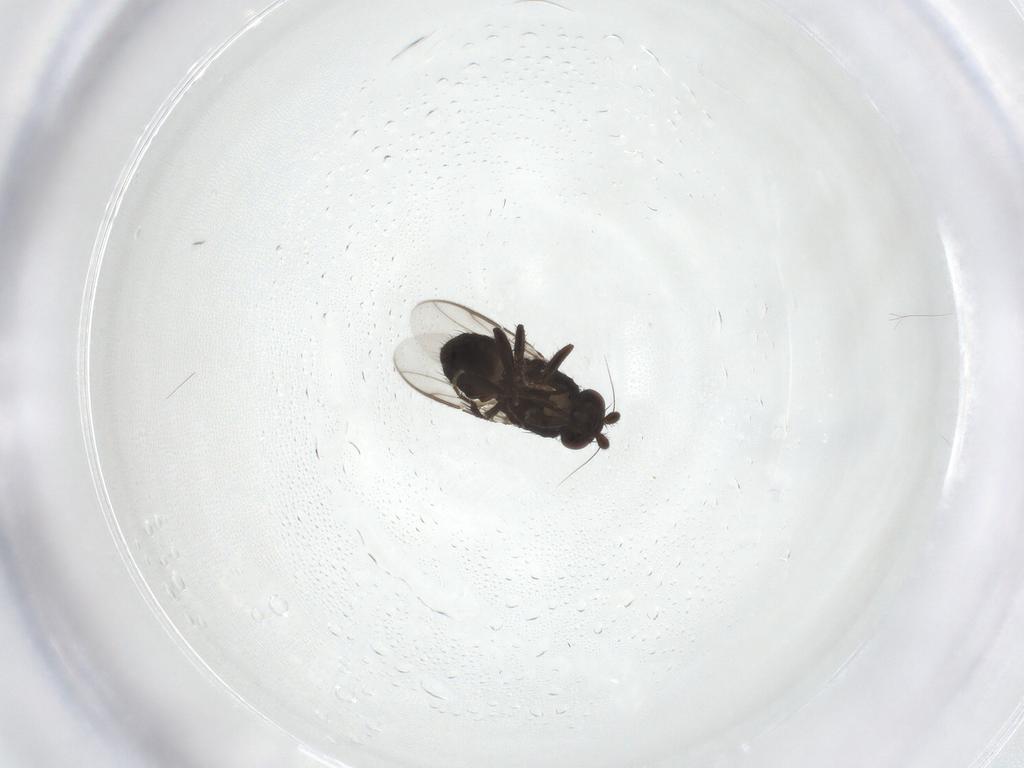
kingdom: Animalia
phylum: Arthropoda
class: Insecta
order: Diptera
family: Sphaeroceridae
